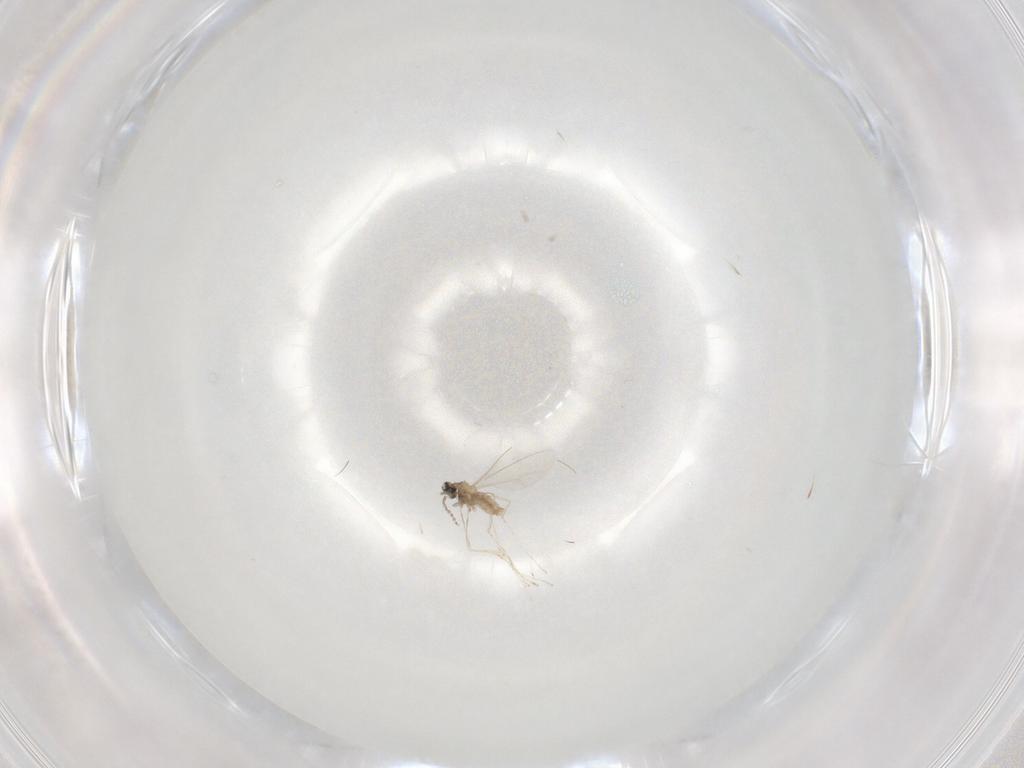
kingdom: Animalia
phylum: Arthropoda
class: Insecta
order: Diptera
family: Cecidomyiidae
